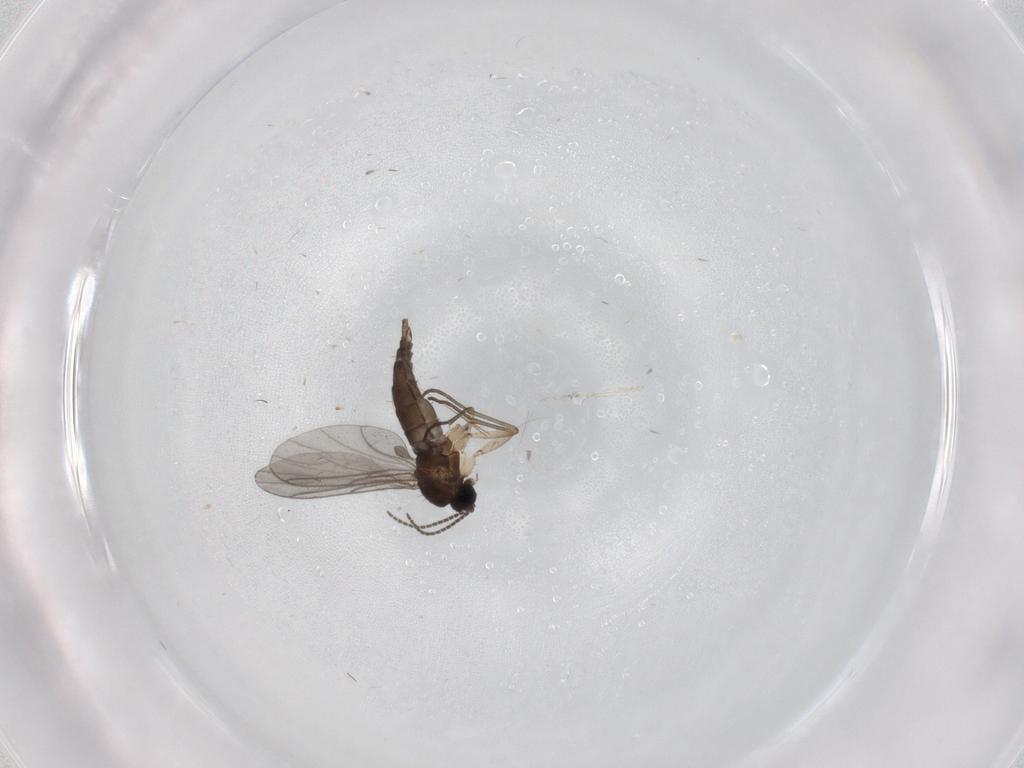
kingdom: Animalia
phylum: Arthropoda
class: Insecta
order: Diptera
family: Sciaridae
